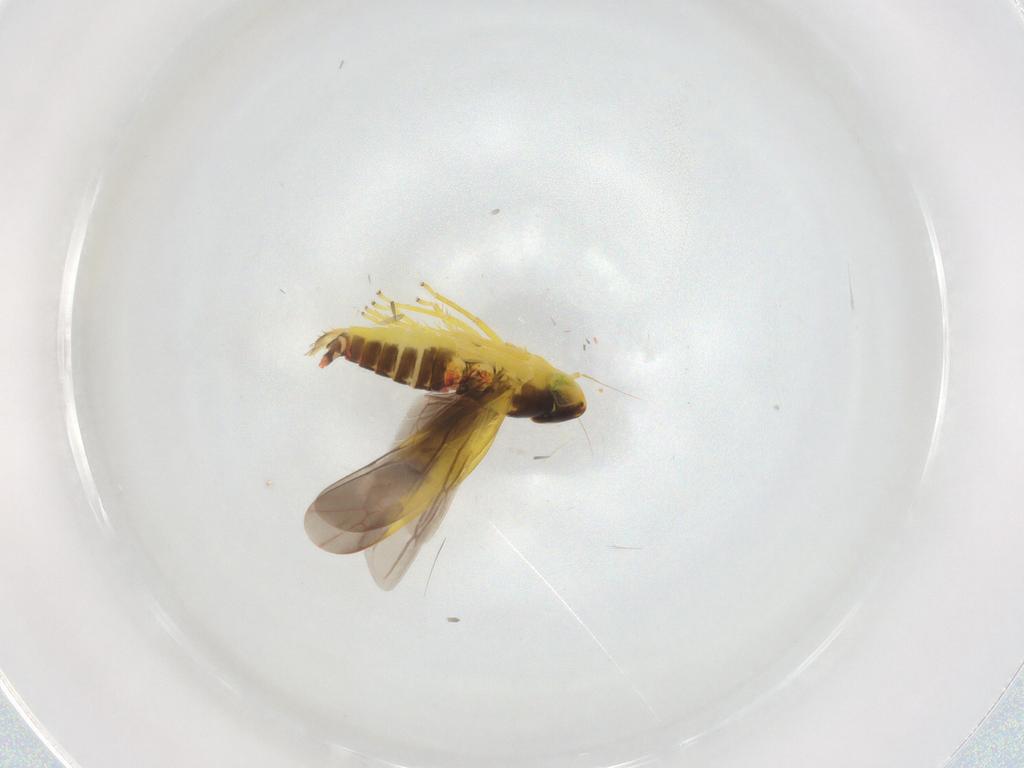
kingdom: Animalia
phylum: Arthropoda
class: Insecta
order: Hemiptera
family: Cicadellidae
